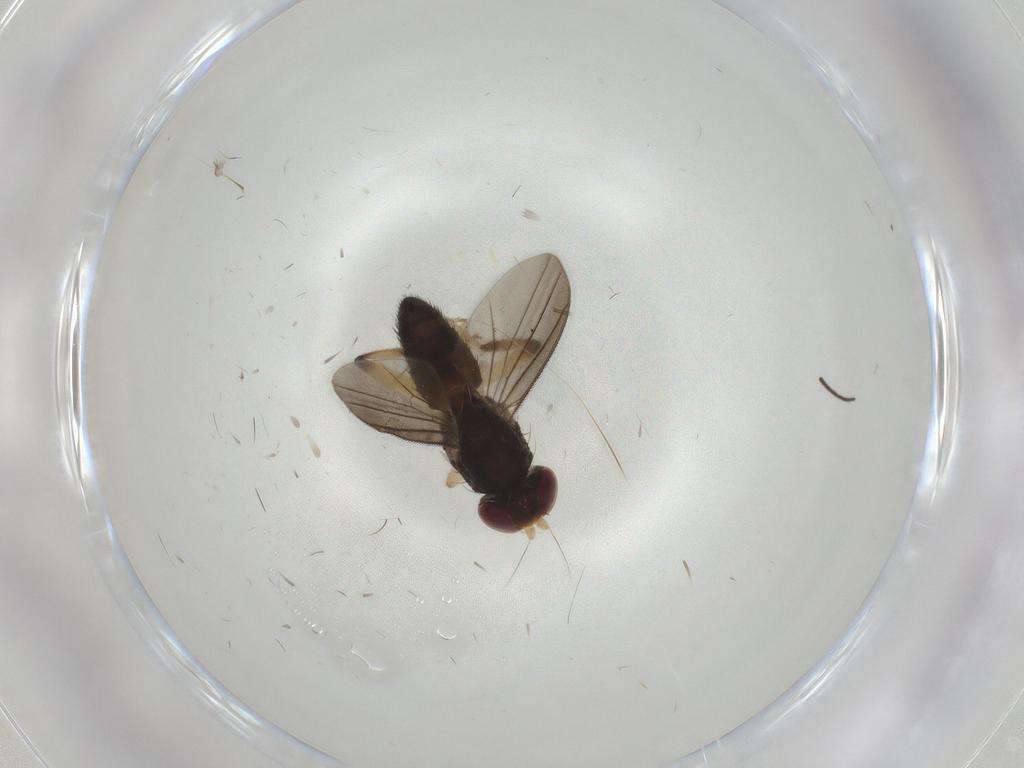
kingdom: Animalia
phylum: Arthropoda
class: Insecta
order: Diptera
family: Clusiidae
